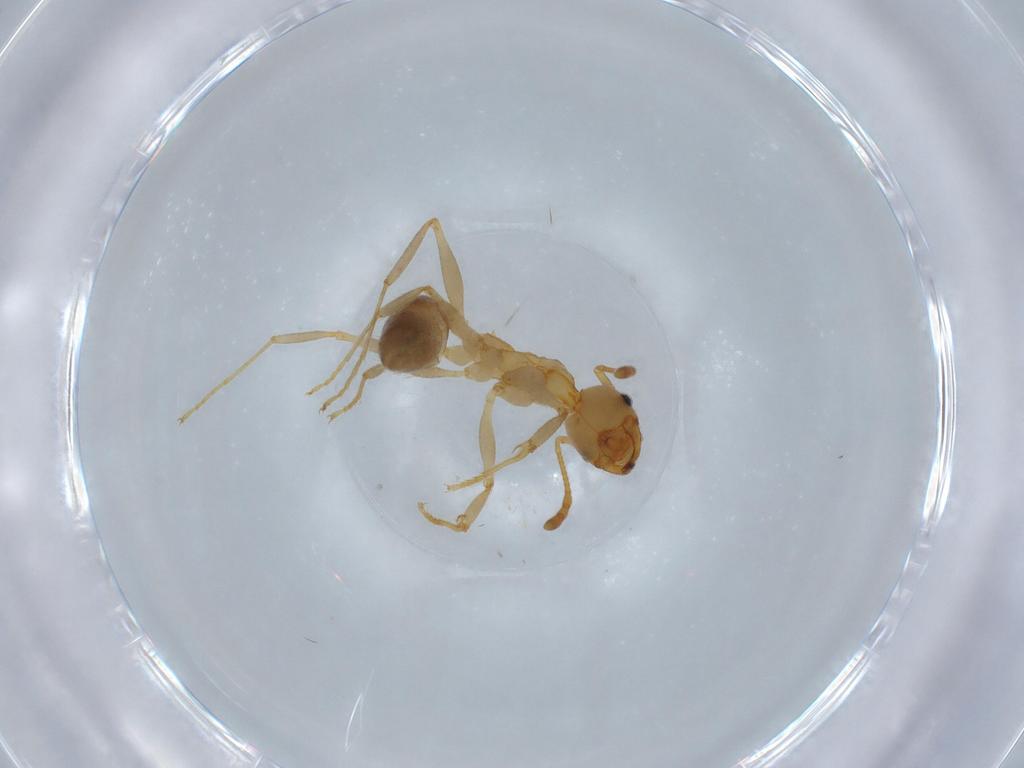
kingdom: Animalia
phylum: Arthropoda
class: Insecta
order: Hymenoptera
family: Formicidae
